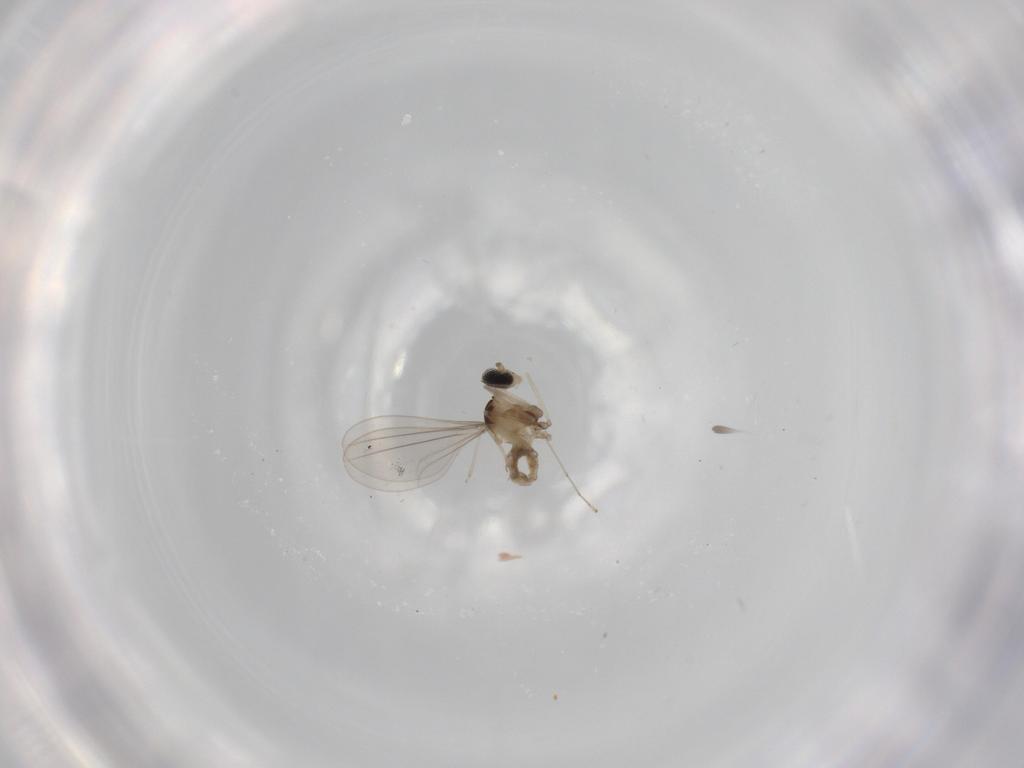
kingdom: Animalia
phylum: Arthropoda
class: Insecta
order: Diptera
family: Cecidomyiidae
